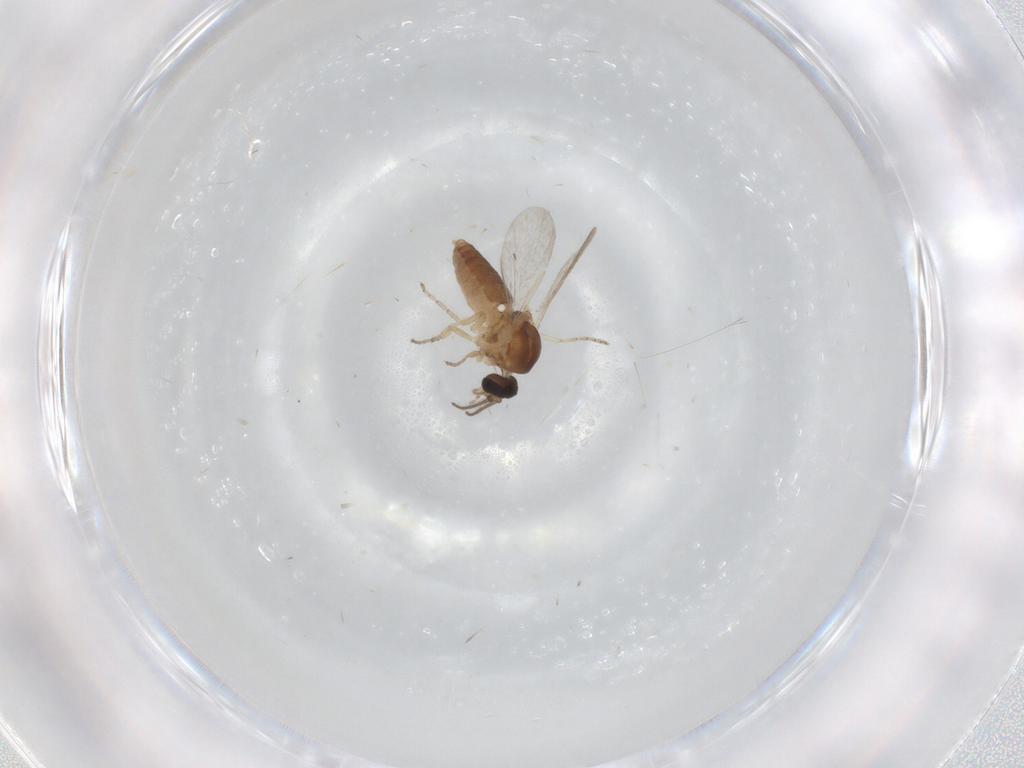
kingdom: Animalia
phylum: Arthropoda
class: Insecta
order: Diptera
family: Ceratopogonidae
